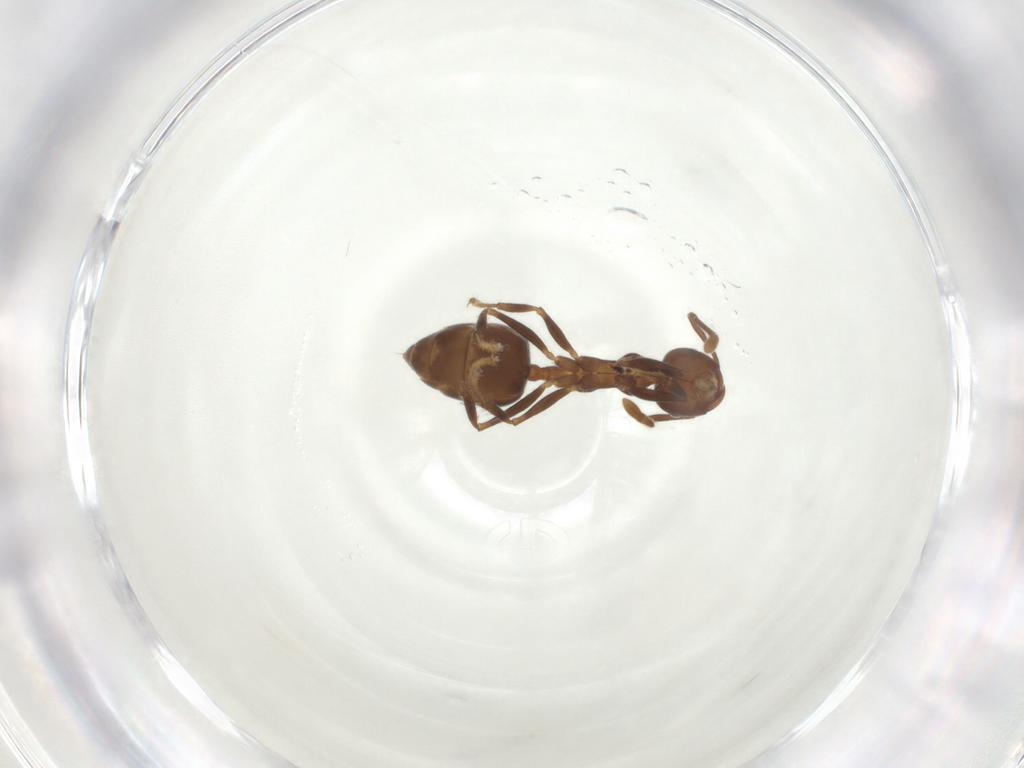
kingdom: Animalia
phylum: Arthropoda
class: Insecta
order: Hymenoptera
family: Formicidae
